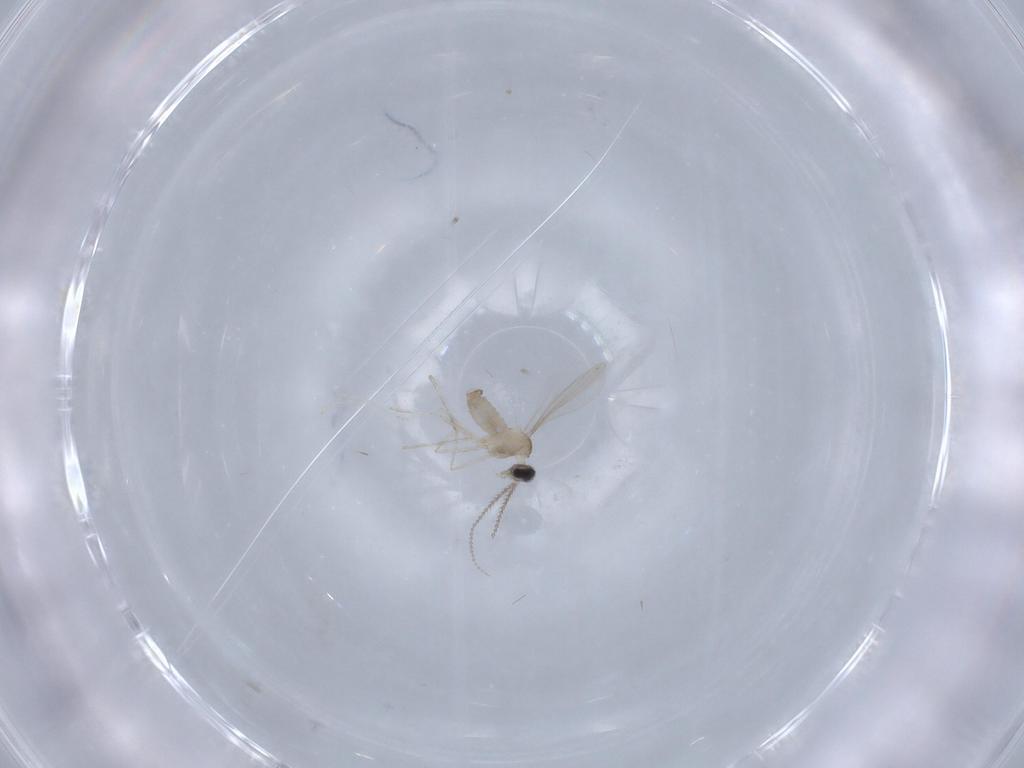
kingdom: Animalia
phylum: Arthropoda
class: Insecta
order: Diptera
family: Cecidomyiidae
